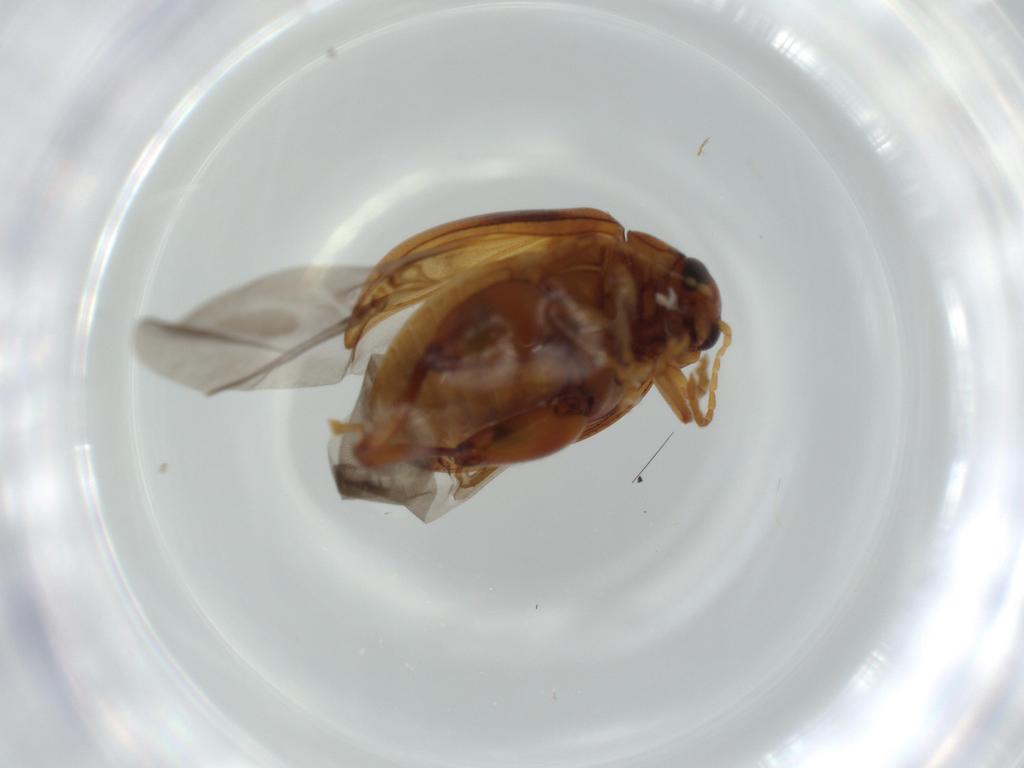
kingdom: Animalia
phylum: Arthropoda
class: Insecta
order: Coleoptera
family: Chrysomelidae
